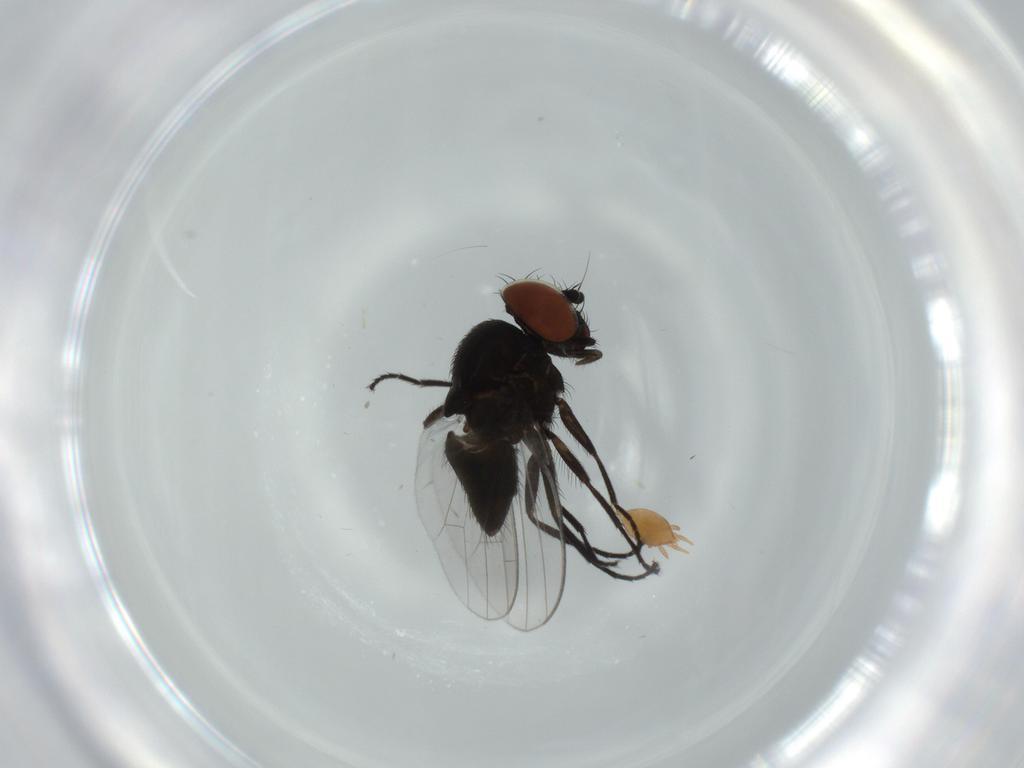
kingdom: Animalia
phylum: Arthropoda
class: Insecta
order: Diptera
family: Milichiidae
